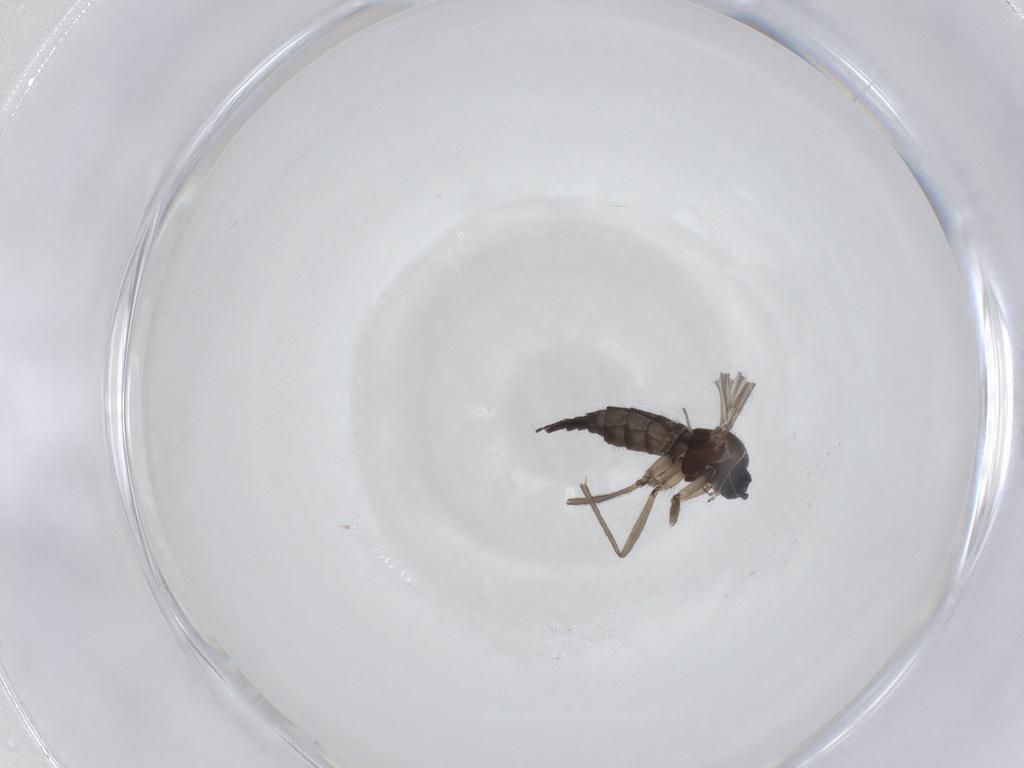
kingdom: Animalia
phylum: Arthropoda
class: Insecta
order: Diptera
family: Sciaridae
